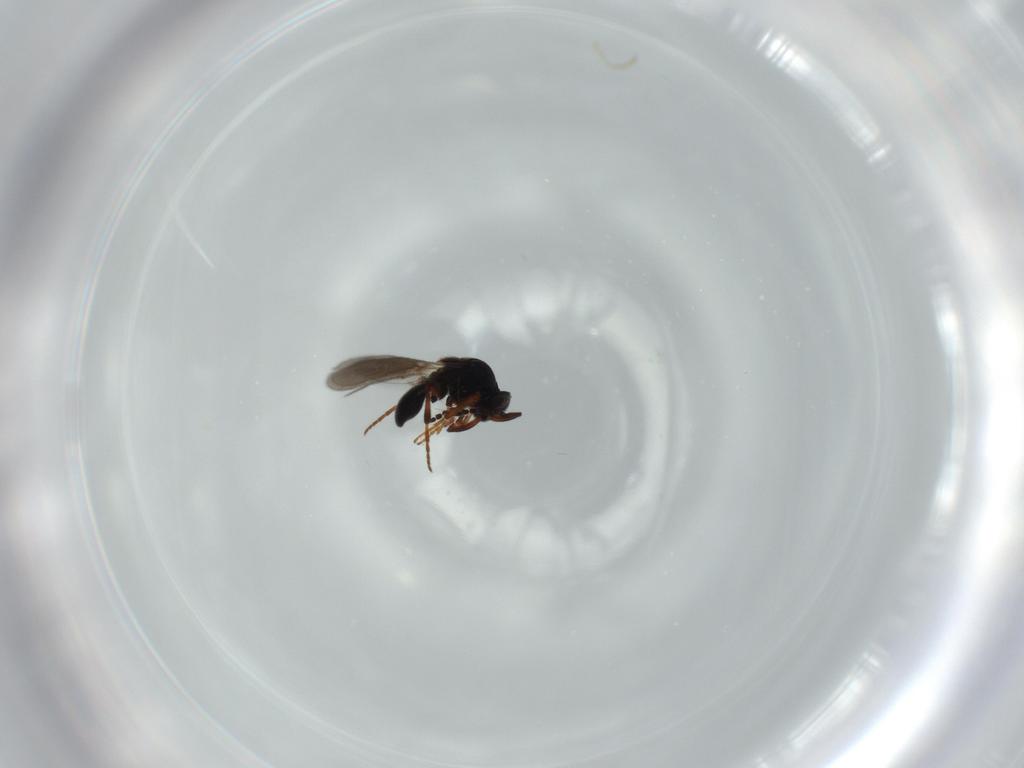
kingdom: Animalia
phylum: Arthropoda
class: Insecta
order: Hymenoptera
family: Platygastridae
